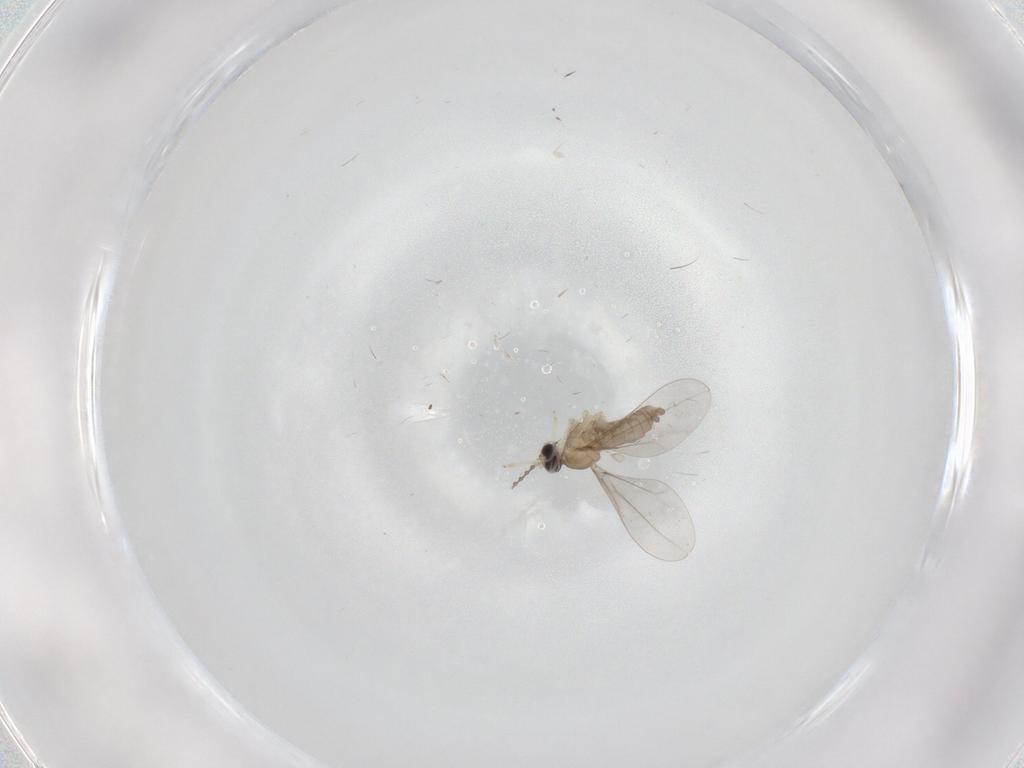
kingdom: Animalia
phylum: Arthropoda
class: Insecta
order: Diptera
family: Cecidomyiidae
